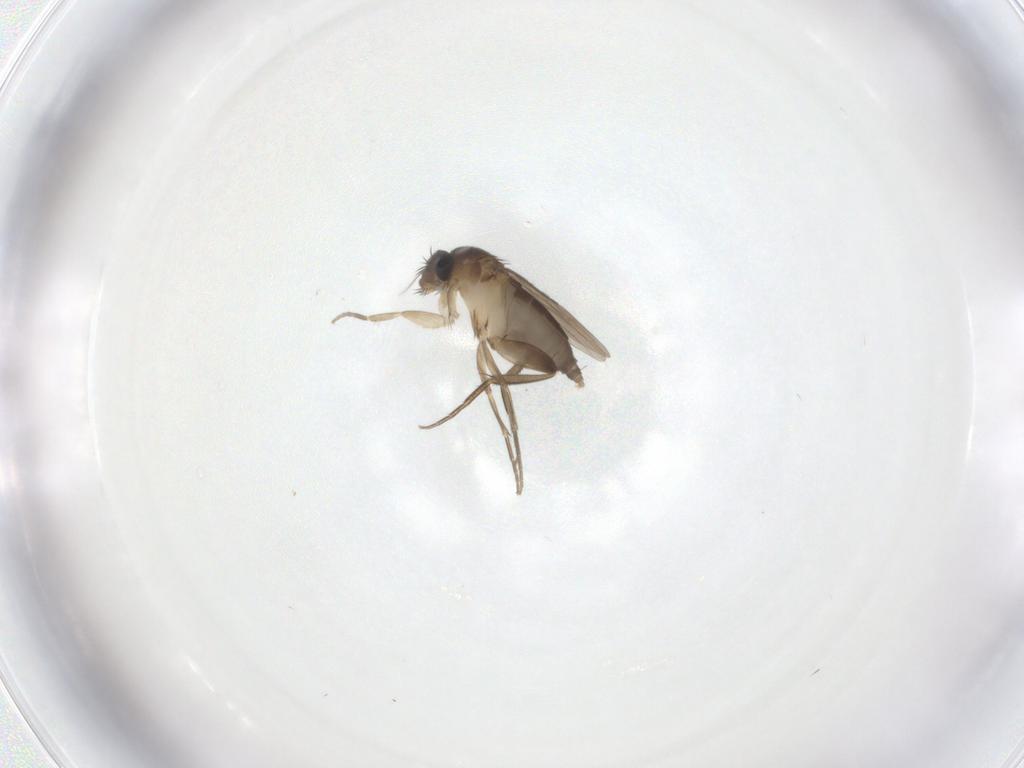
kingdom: Animalia
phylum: Arthropoda
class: Insecta
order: Diptera
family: Phoridae
